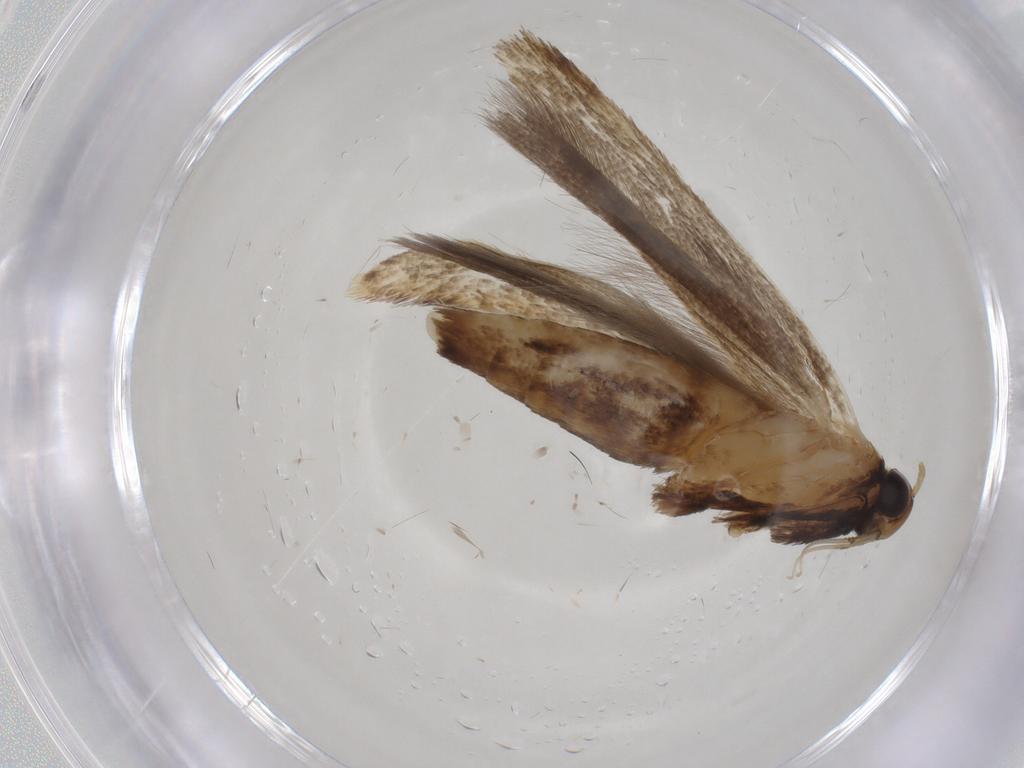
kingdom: Animalia
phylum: Arthropoda
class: Insecta
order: Lepidoptera
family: Gelechiidae
